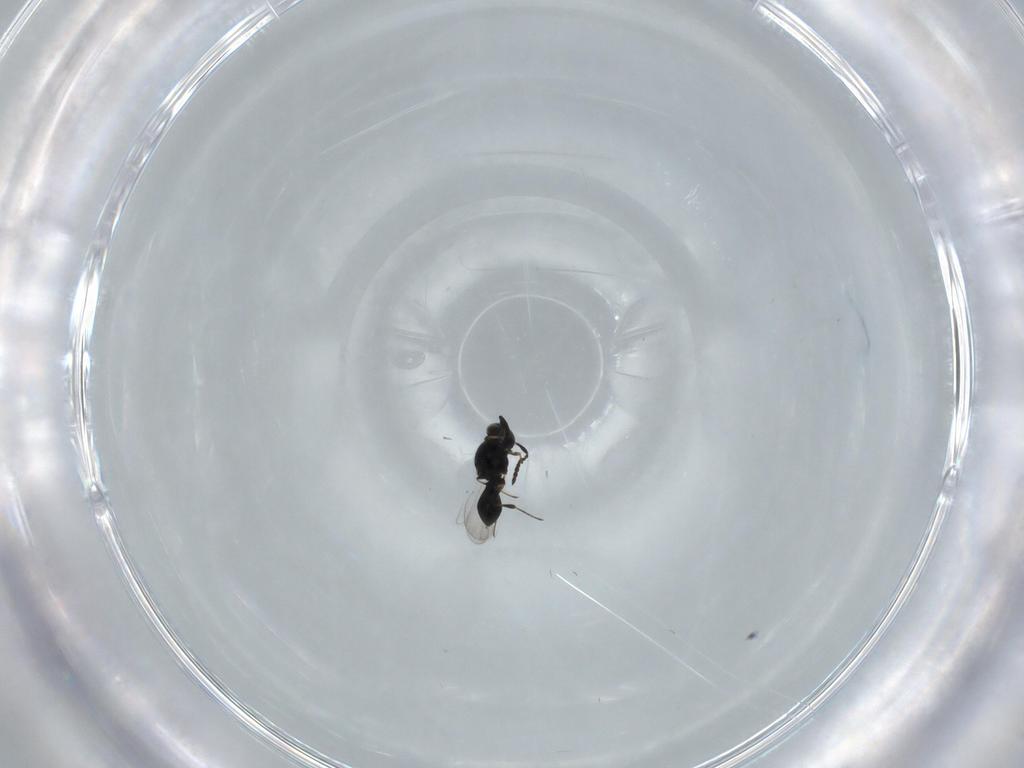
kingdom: Animalia
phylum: Arthropoda
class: Insecta
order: Hymenoptera
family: Platygastridae
